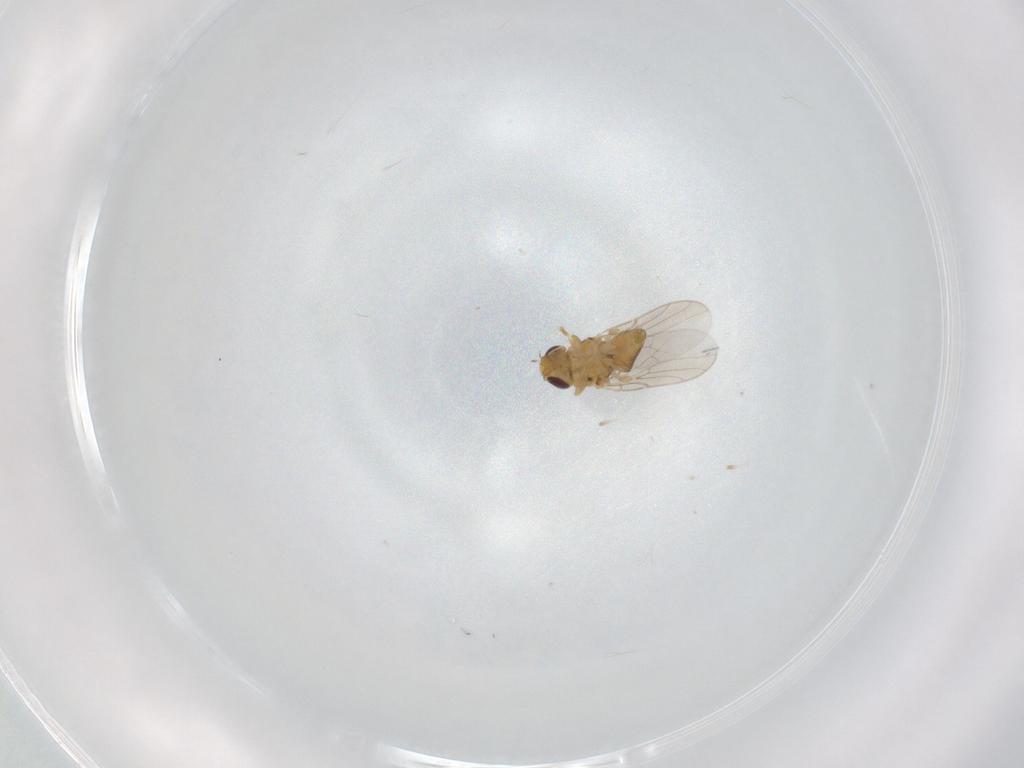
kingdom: Animalia
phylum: Arthropoda
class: Insecta
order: Diptera
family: Chloropidae
